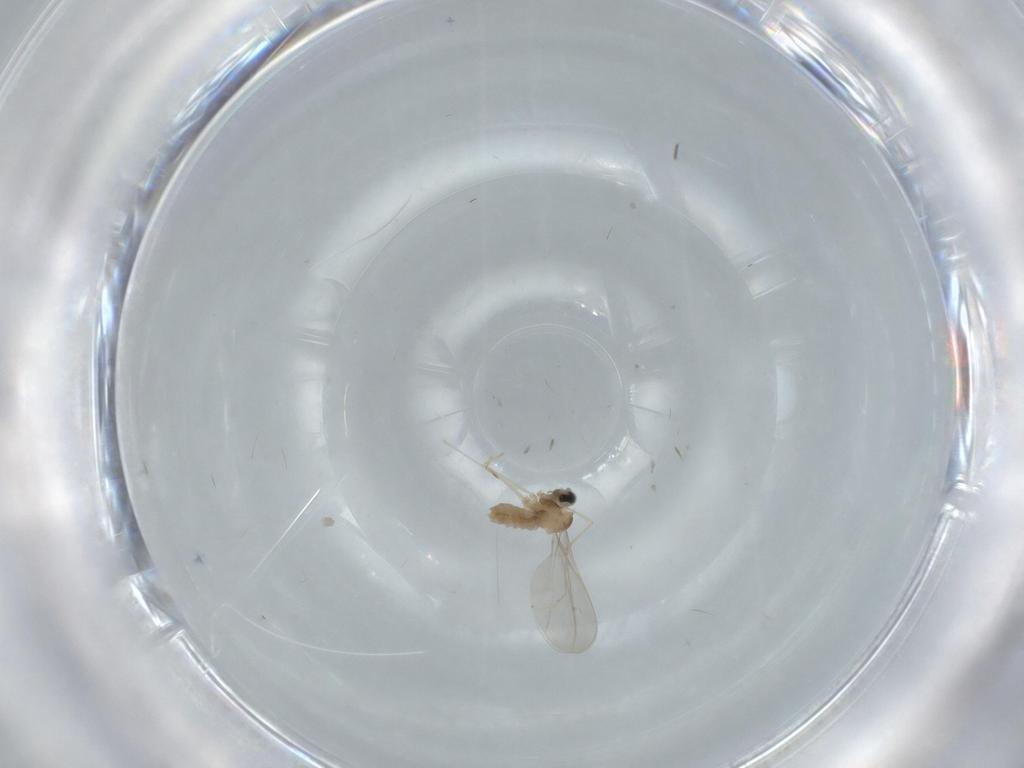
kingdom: Animalia
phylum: Arthropoda
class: Insecta
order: Diptera
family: Cecidomyiidae
